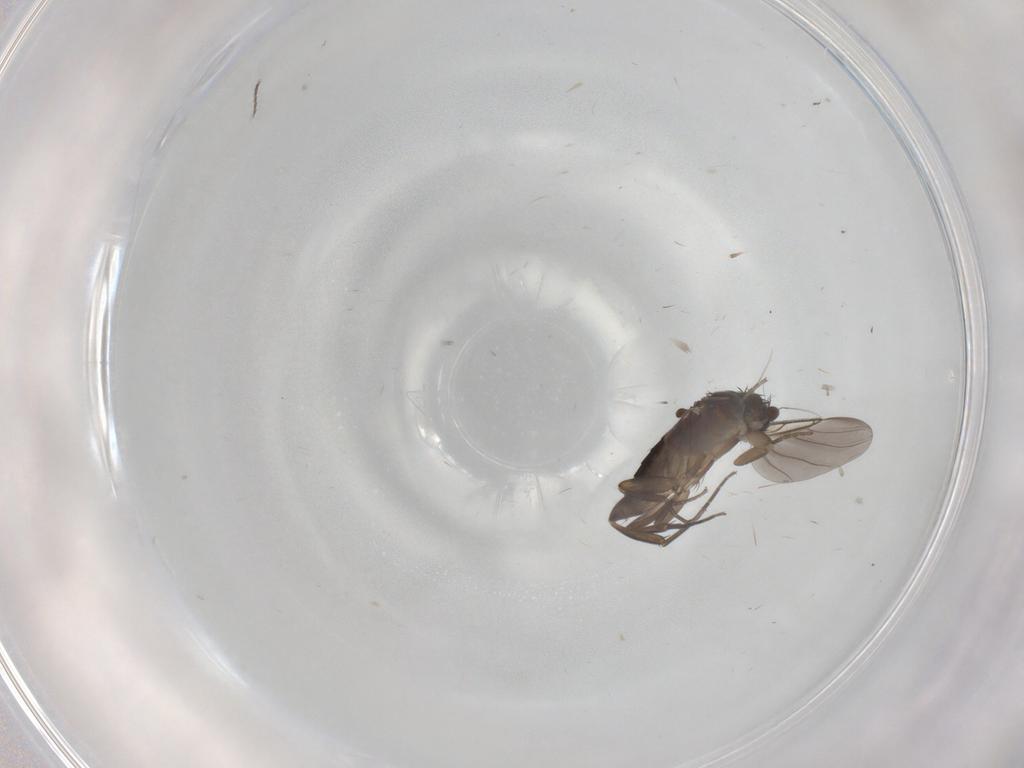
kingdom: Animalia
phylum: Arthropoda
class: Insecta
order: Diptera
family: Phoridae
